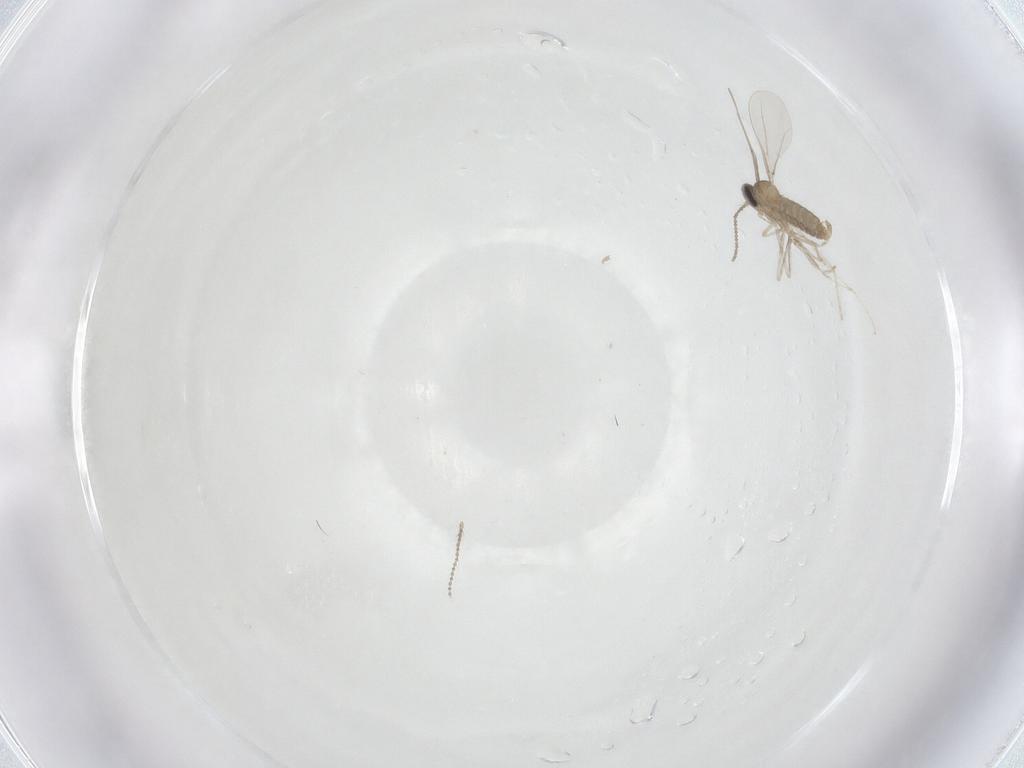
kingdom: Animalia
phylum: Arthropoda
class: Insecta
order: Diptera
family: Cecidomyiidae
